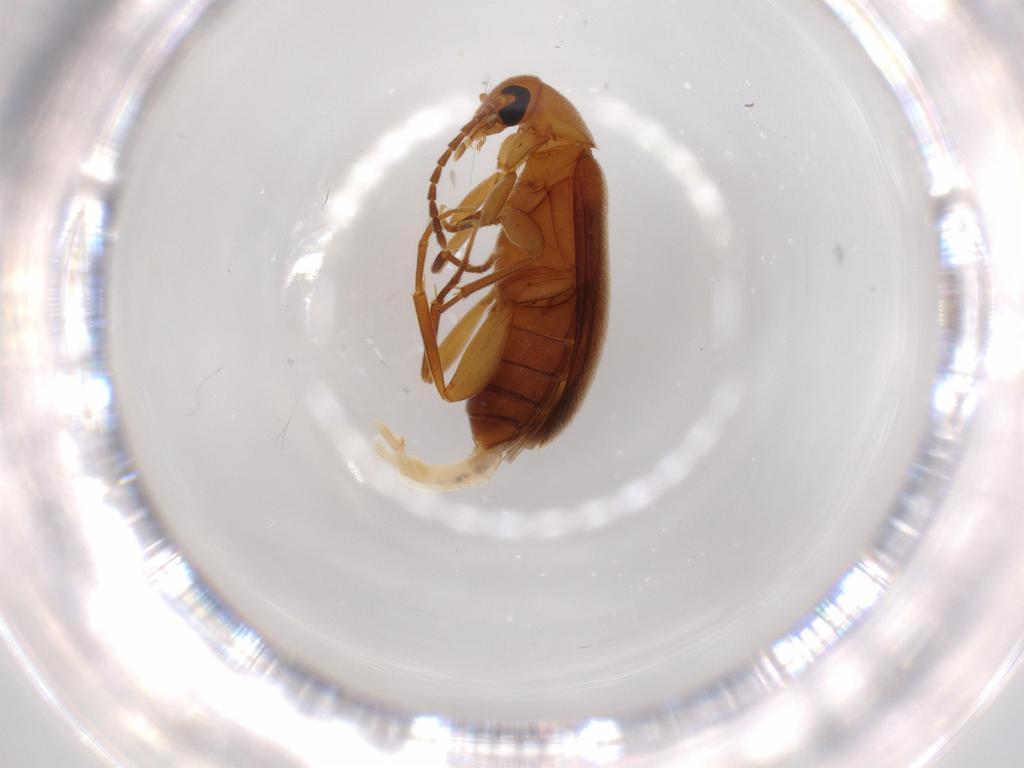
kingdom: Animalia
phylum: Arthropoda
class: Insecta
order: Coleoptera
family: Scraptiidae
